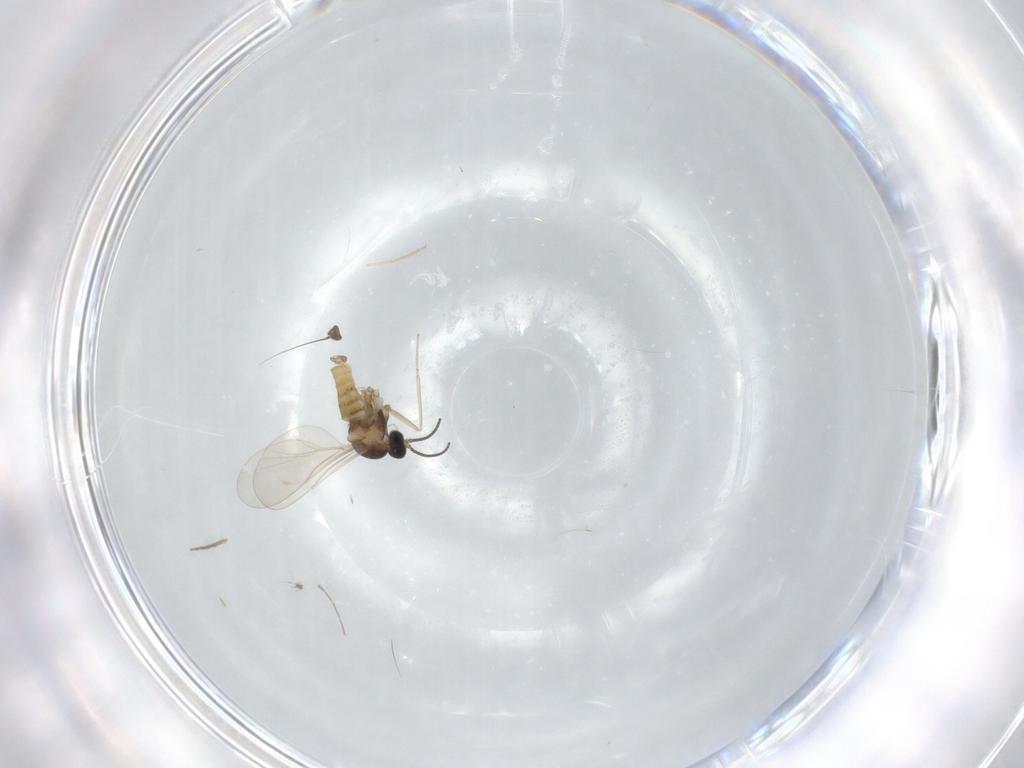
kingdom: Animalia
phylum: Arthropoda
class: Insecta
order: Diptera
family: Chironomidae
